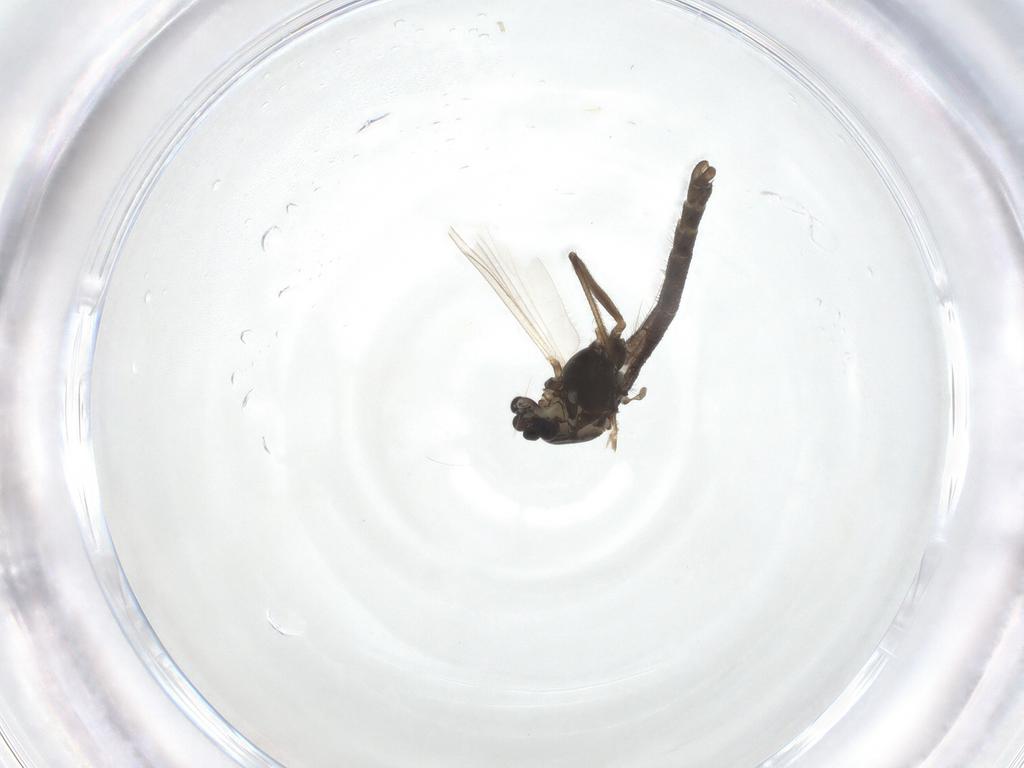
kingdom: Animalia
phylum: Arthropoda
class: Insecta
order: Diptera
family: Chironomidae
